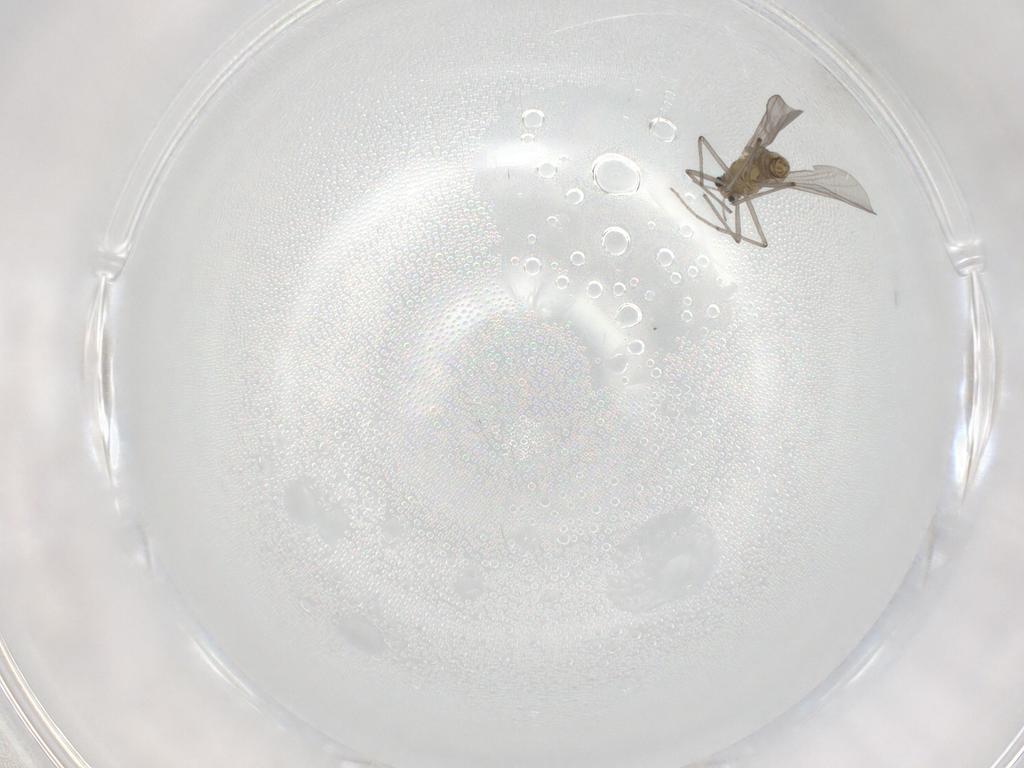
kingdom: Animalia
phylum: Arthropoda
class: Insecta
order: Diptera
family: Chironomidae
